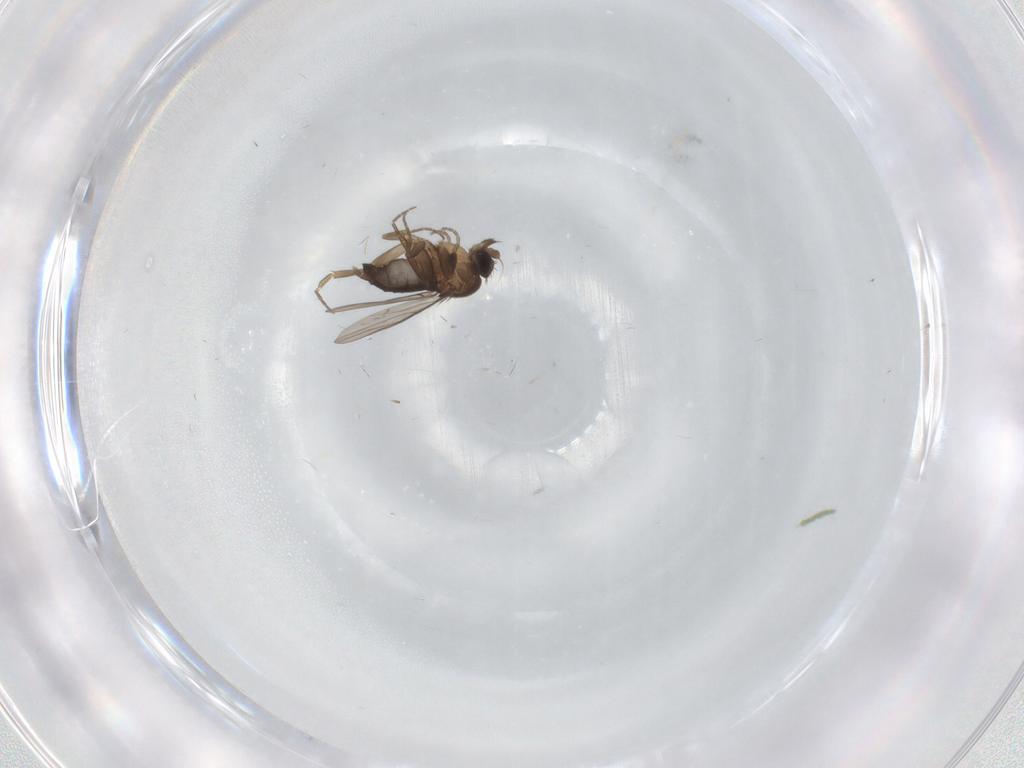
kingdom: Animalia
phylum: Arthropoda
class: Insecta
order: Diptera
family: Phoridae
